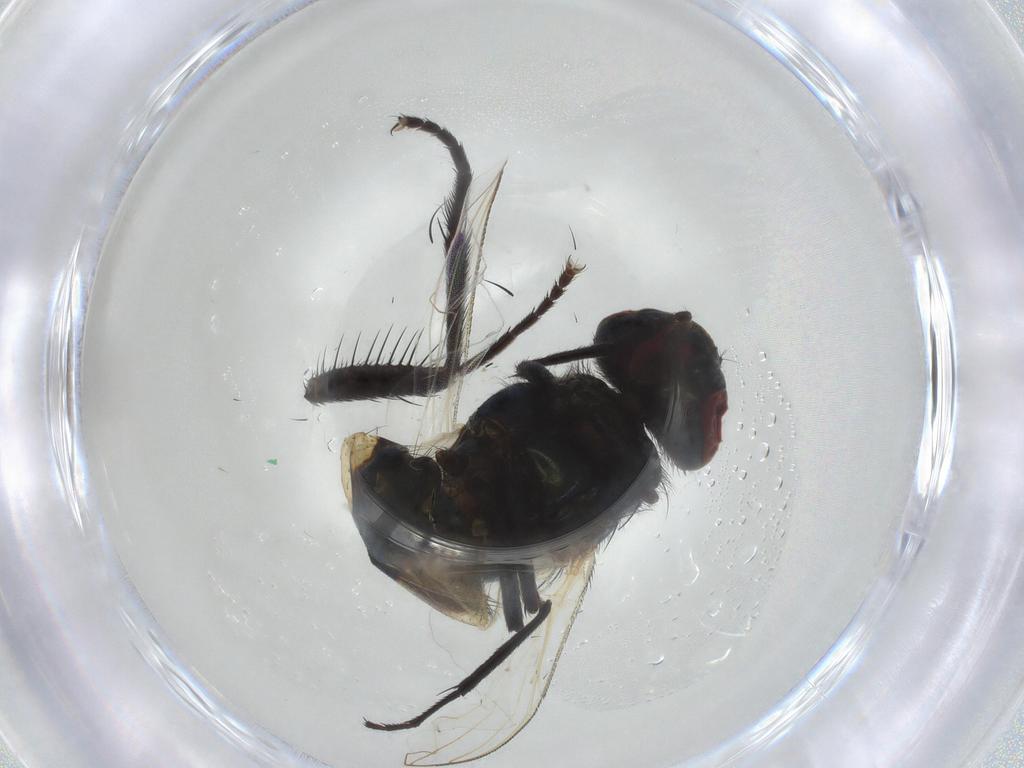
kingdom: Animalia
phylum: Arthropoda
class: Insecta
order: Diptera
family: Muscidae
